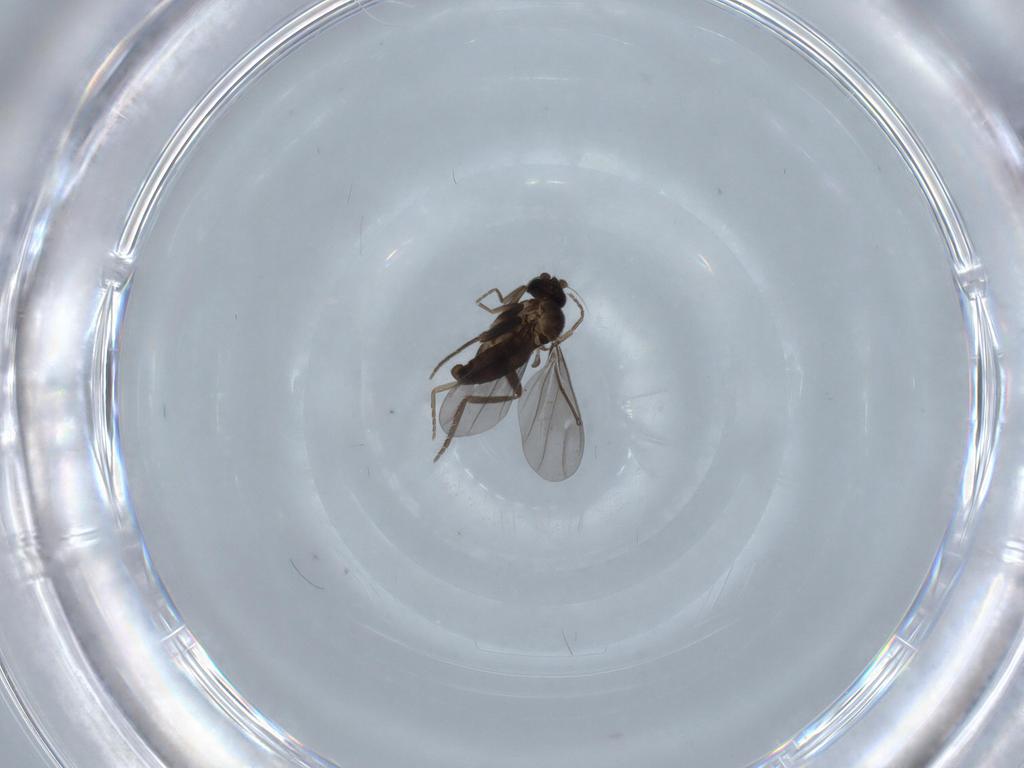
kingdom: Animalia
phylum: Arthropoda
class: Insecta
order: Diptera
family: Phoridae
